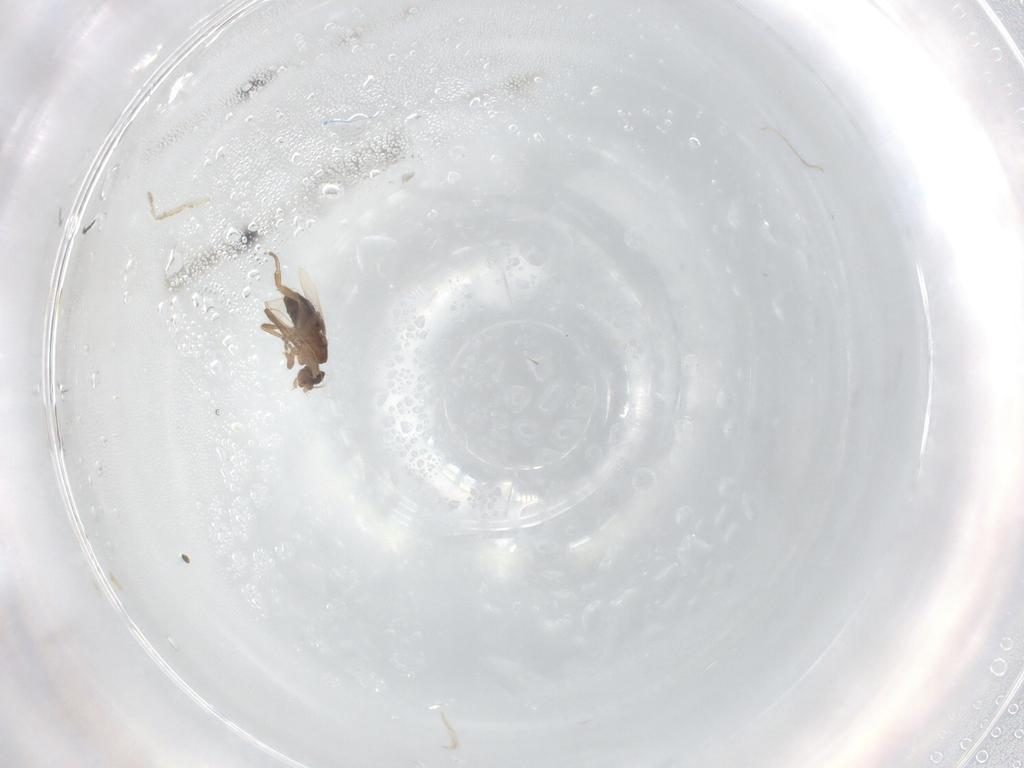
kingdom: Animalia
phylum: Arthropoda
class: Insecta
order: Diptera
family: Phoridae
